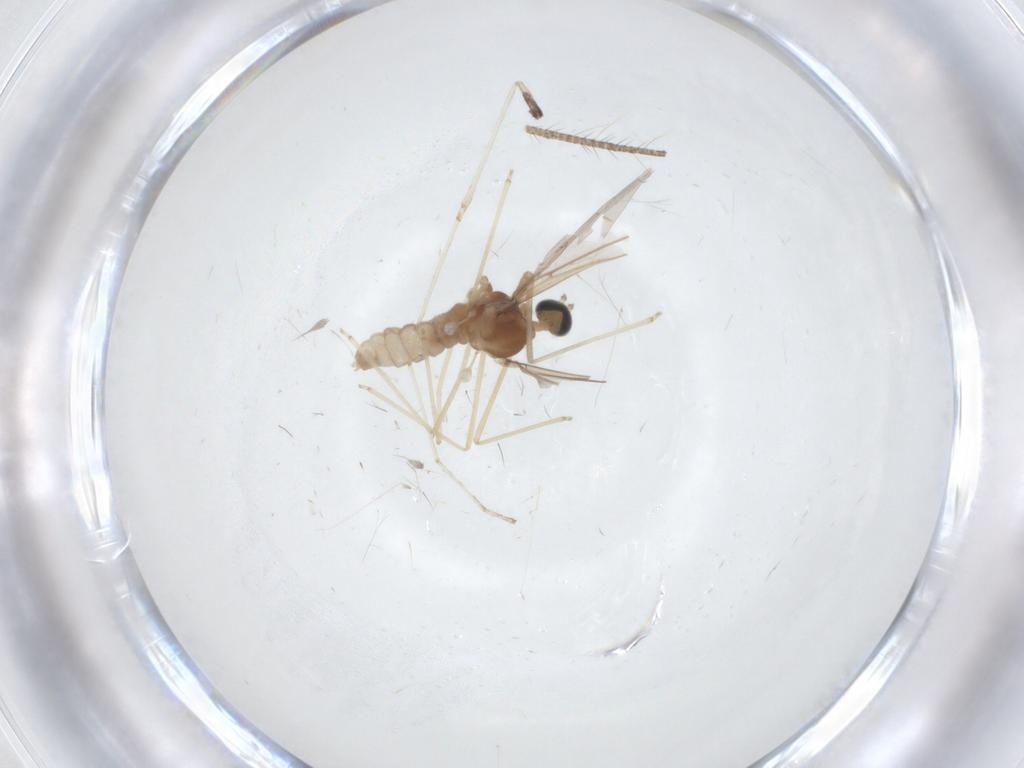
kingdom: Animalia
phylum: Arthropoda
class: Insecta
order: Diptera
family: Cecidomyiidae
